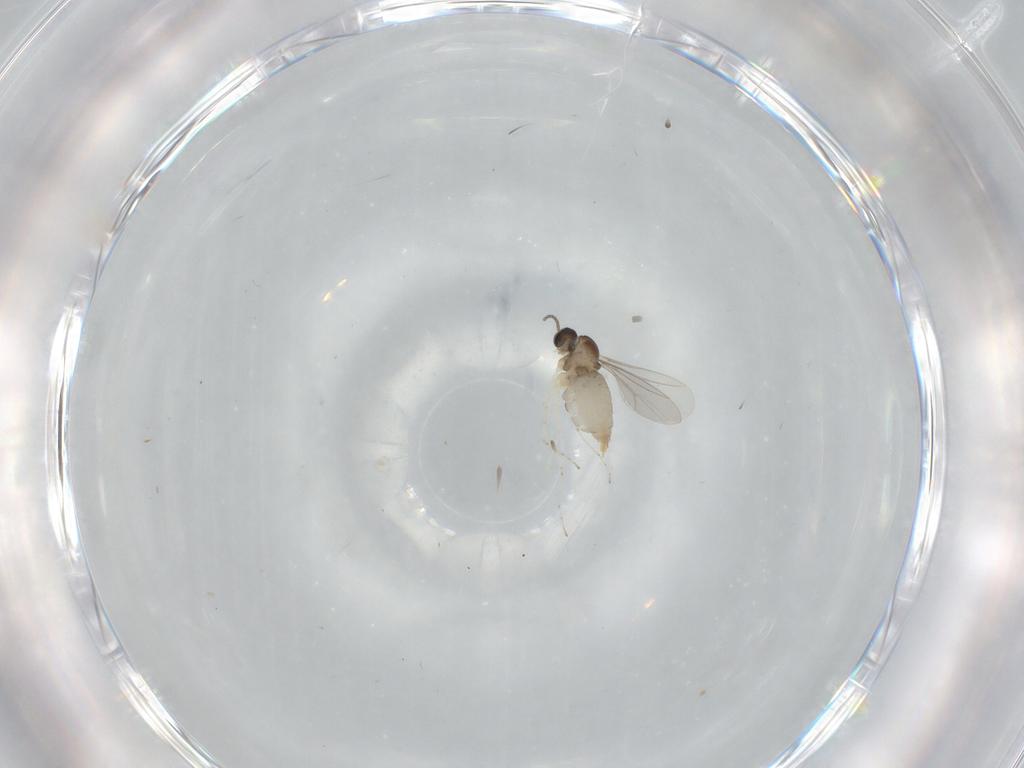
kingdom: Animalia
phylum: Arthropoda
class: Insecta
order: Diptera
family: Cecidomyiidae
